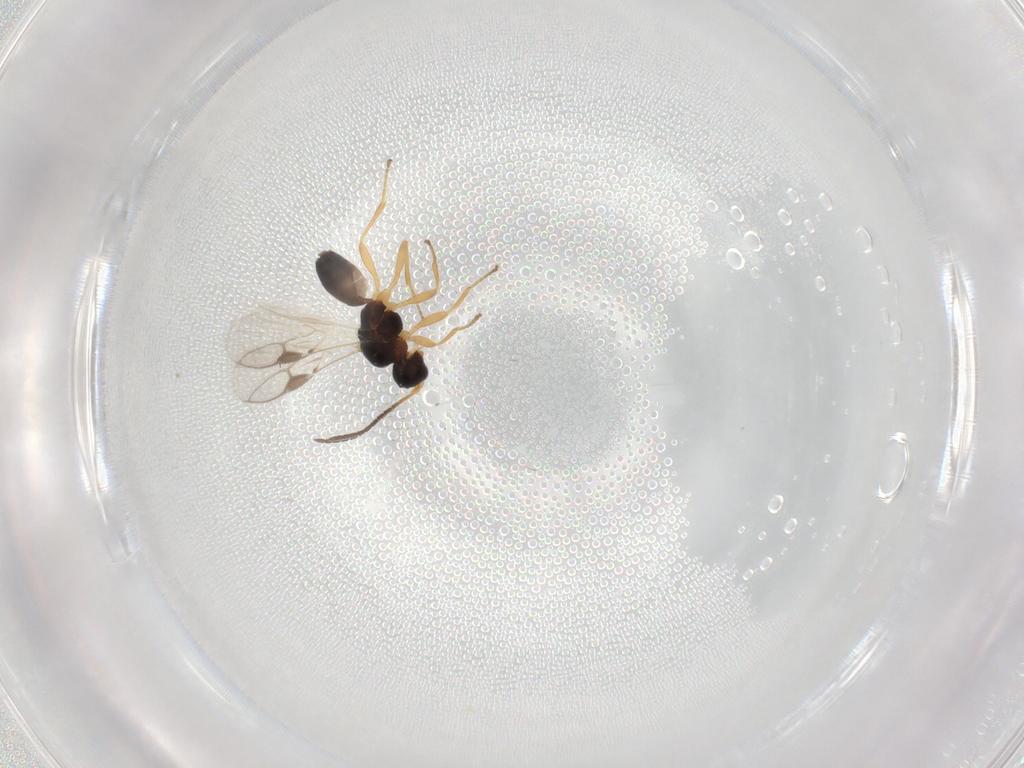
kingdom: Animalia
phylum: Arthropoda
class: Insecta
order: Hymenoptera
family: Braconidae
